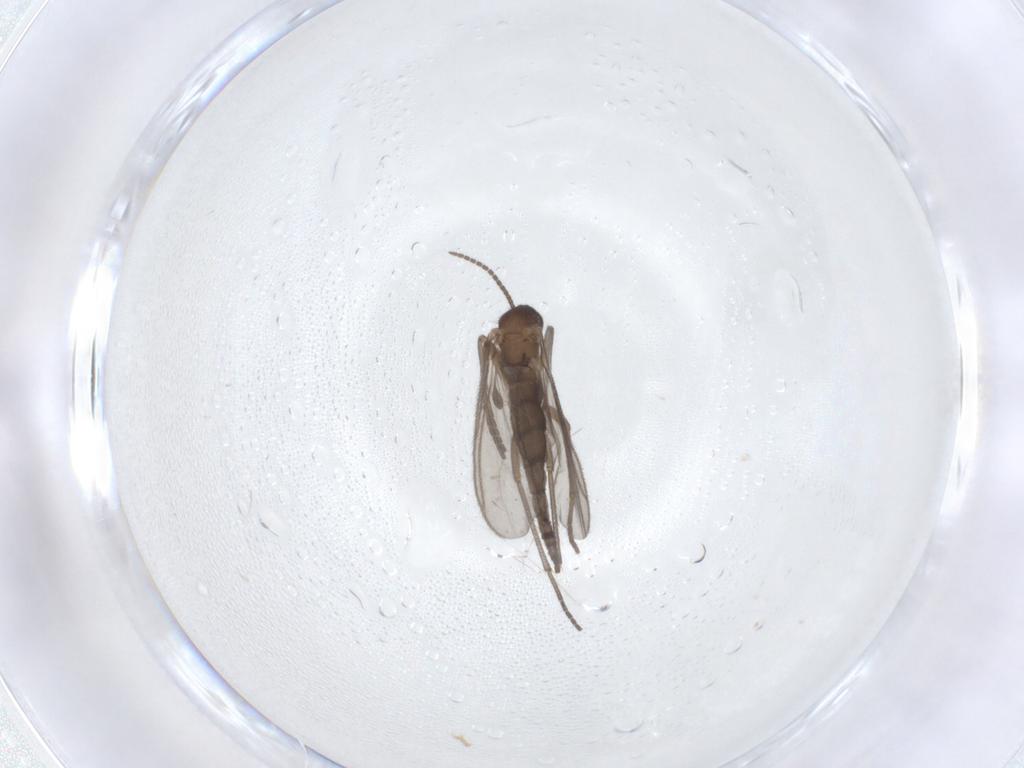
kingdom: Animalia
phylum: Arthropoda
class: Insecta
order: Diptera
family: Sciaridae
